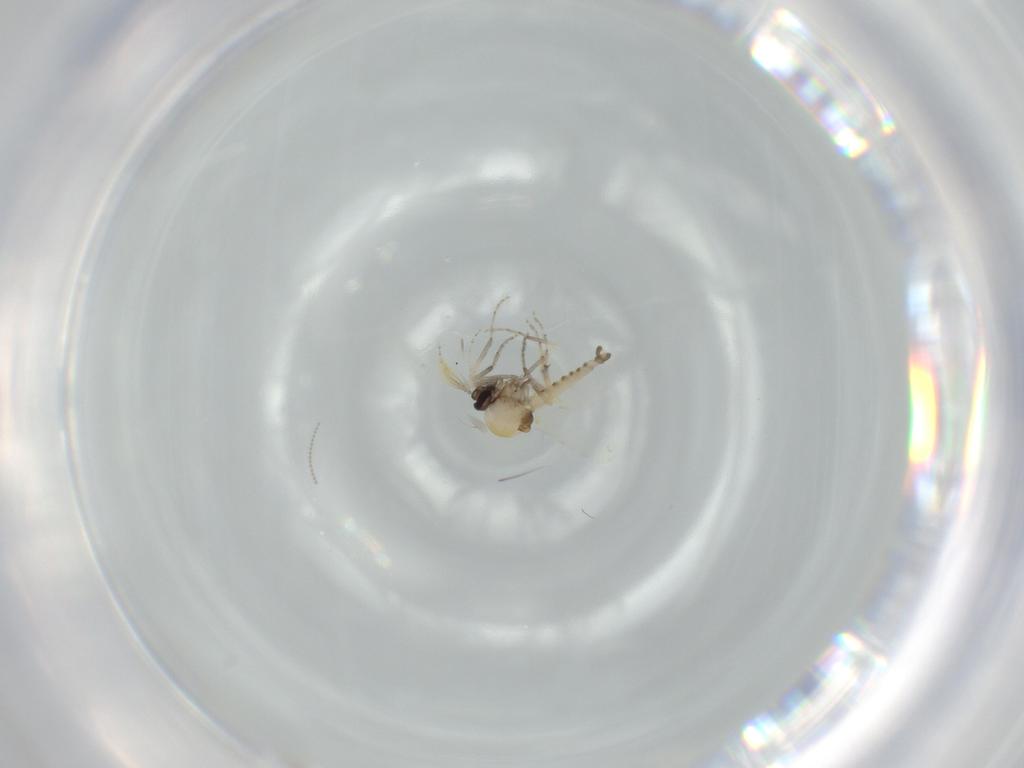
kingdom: Animalia
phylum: Arthropoda
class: Insecta
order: Diptera
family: Ceratopogonidae
